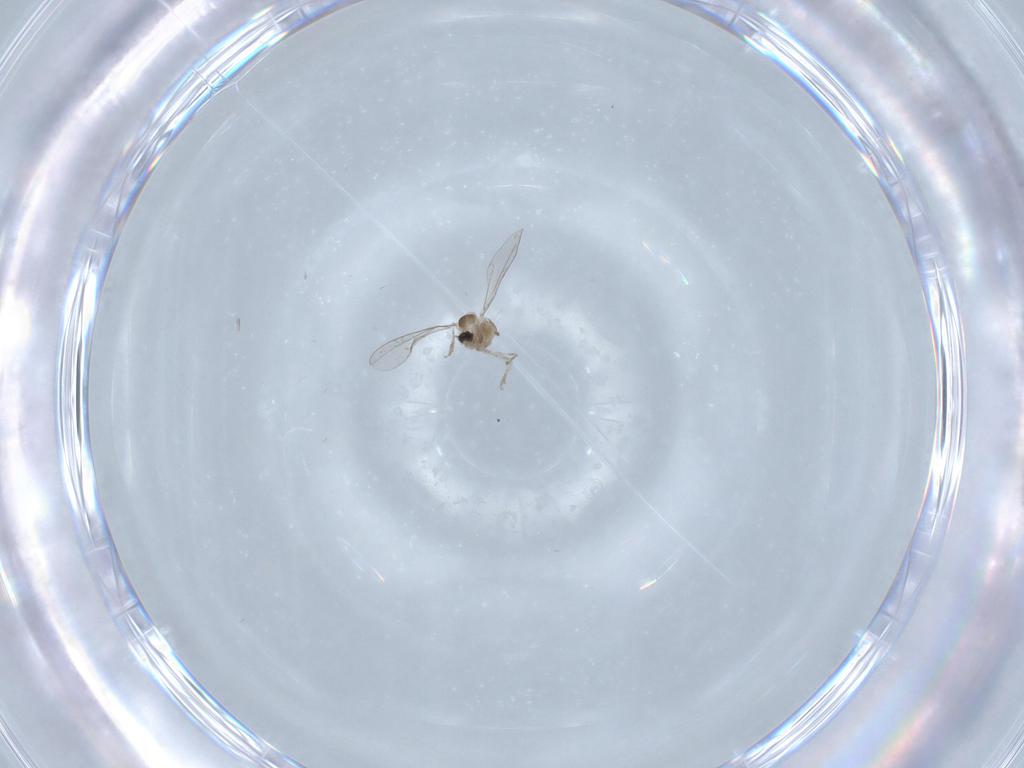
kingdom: Animalia
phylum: Arthropoda
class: Insecta
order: Diptera
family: Cecidomyiidae
